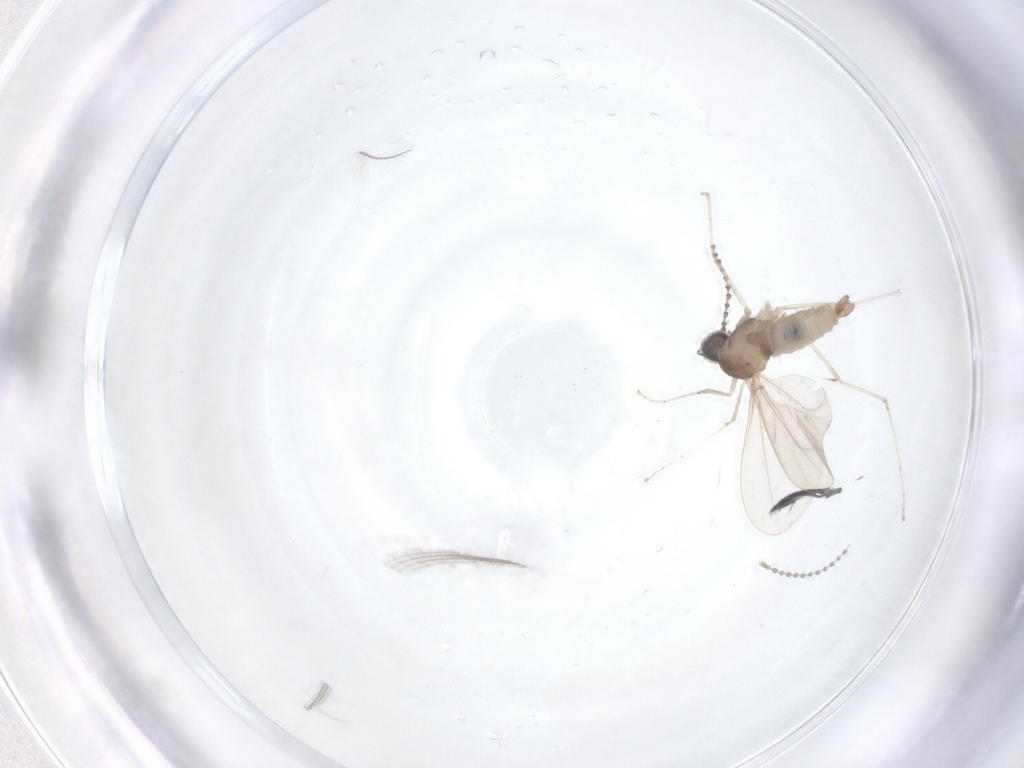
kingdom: Animalia
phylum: Arthropoda
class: Insecta
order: Diptera
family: Cecidomyiidae
